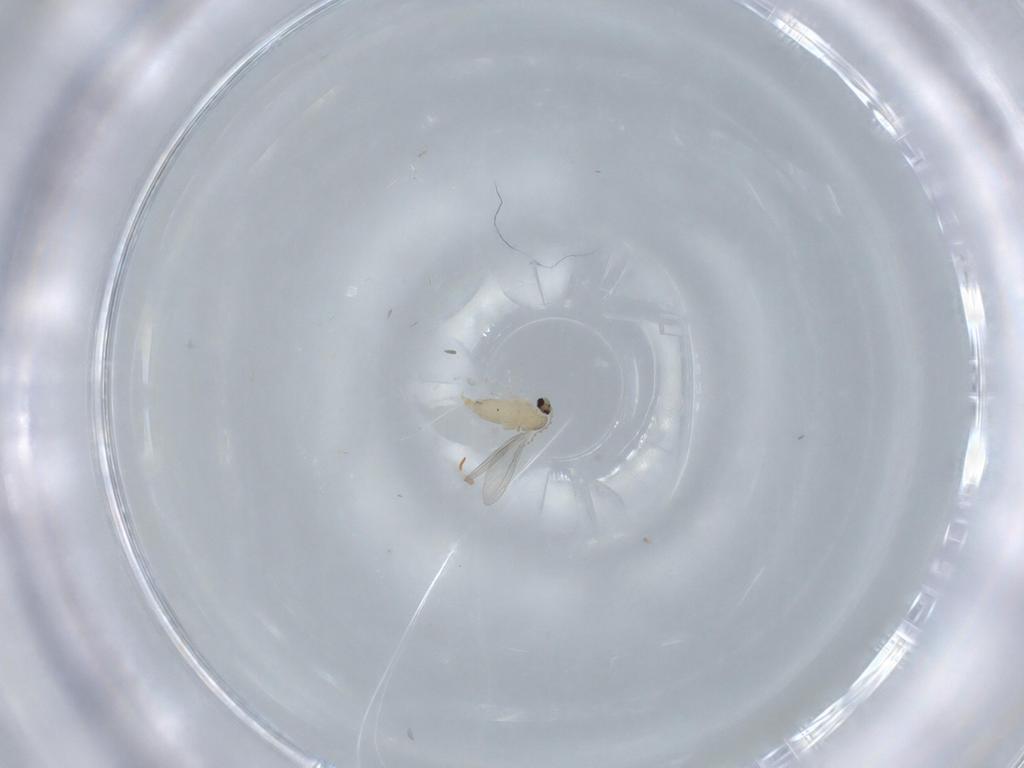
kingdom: Animalia
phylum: Arthropoda
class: Insecta
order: Diptera
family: Cecidomyiidae
